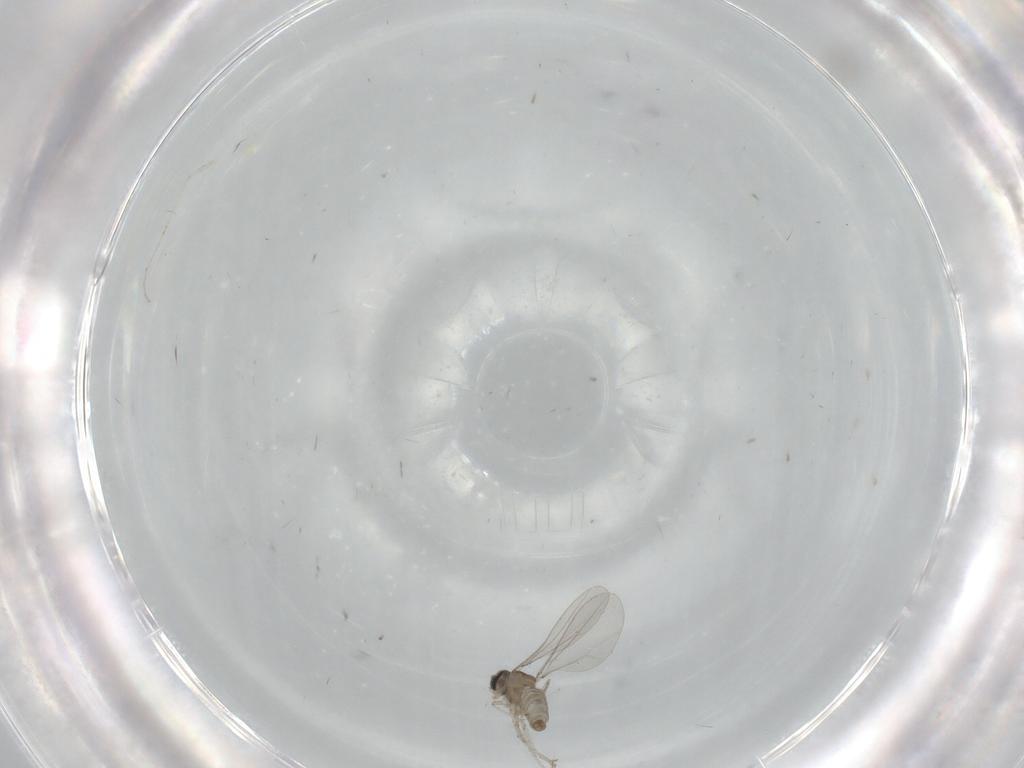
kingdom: Animalia
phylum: Arthropoda
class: Insecta
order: Diptera
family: Cecidomyiidae
